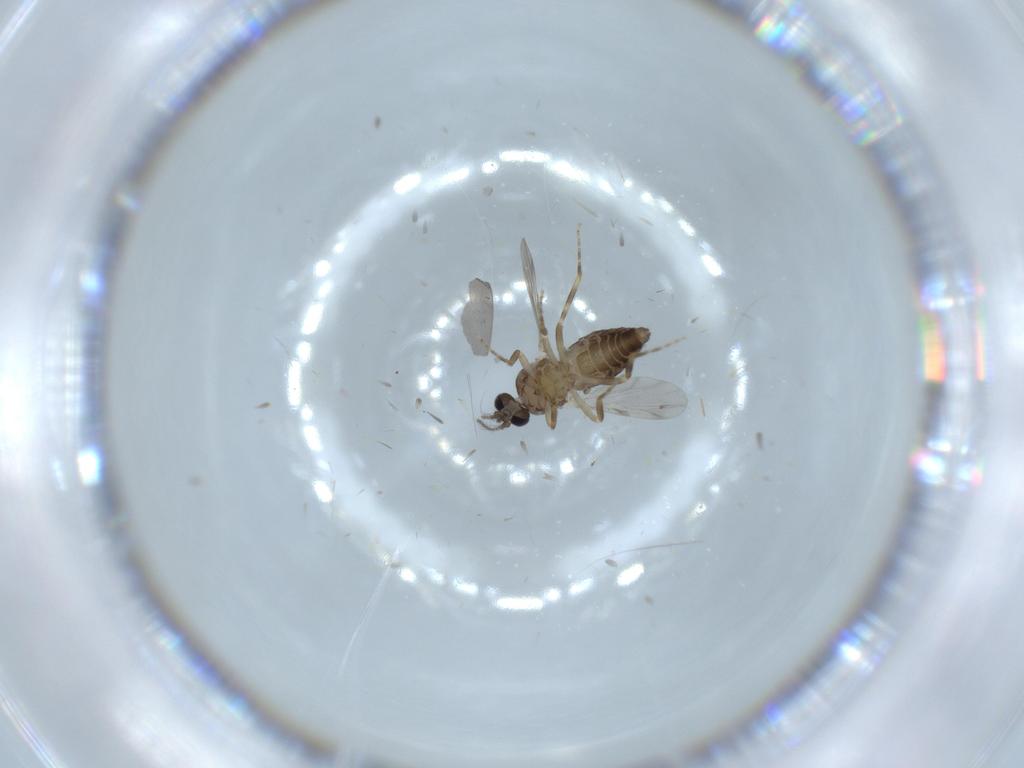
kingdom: Animalia
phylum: Arthropoda
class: Insecta
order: Diptera
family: Ceratopogonidae
